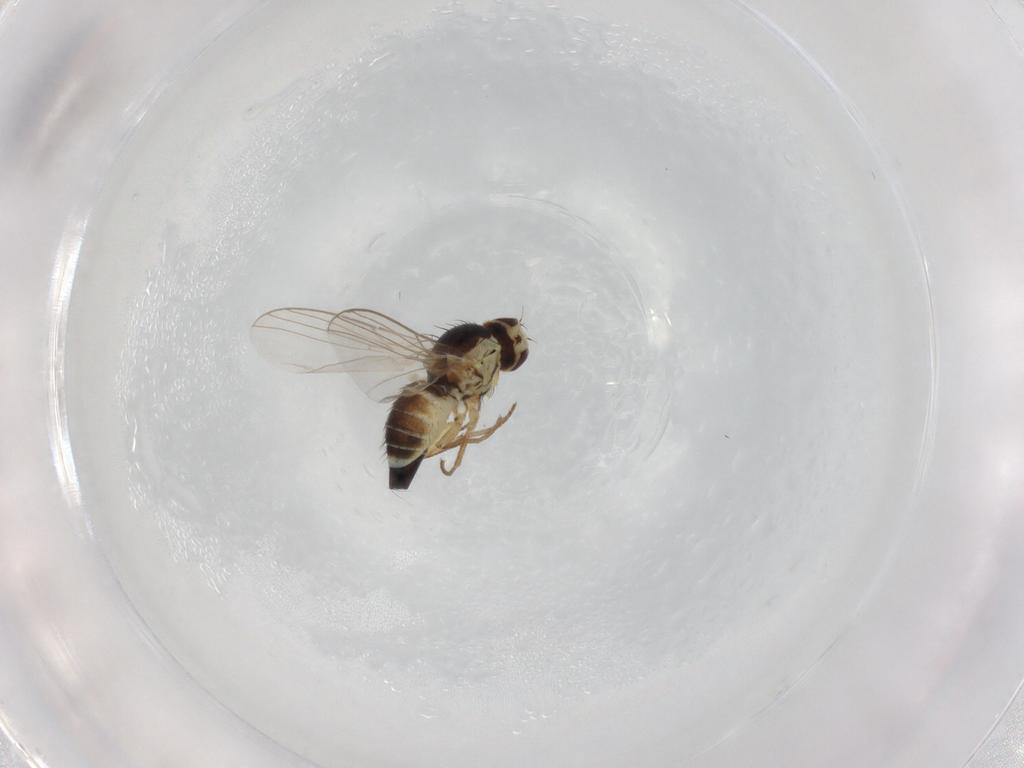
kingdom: Animalia
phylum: Arthropoda
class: Insecta
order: Diptera
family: Agromyzidae
